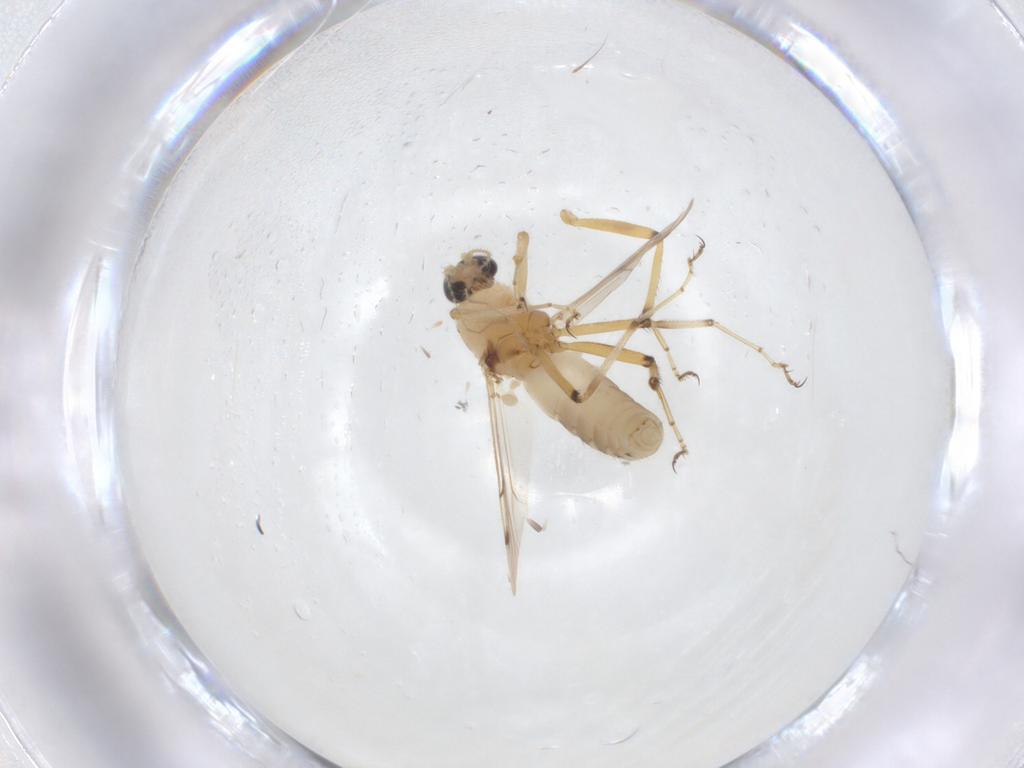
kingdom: Animalia
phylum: Arthropoda
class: Insecta
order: Diptera
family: Ceratopogonidae
